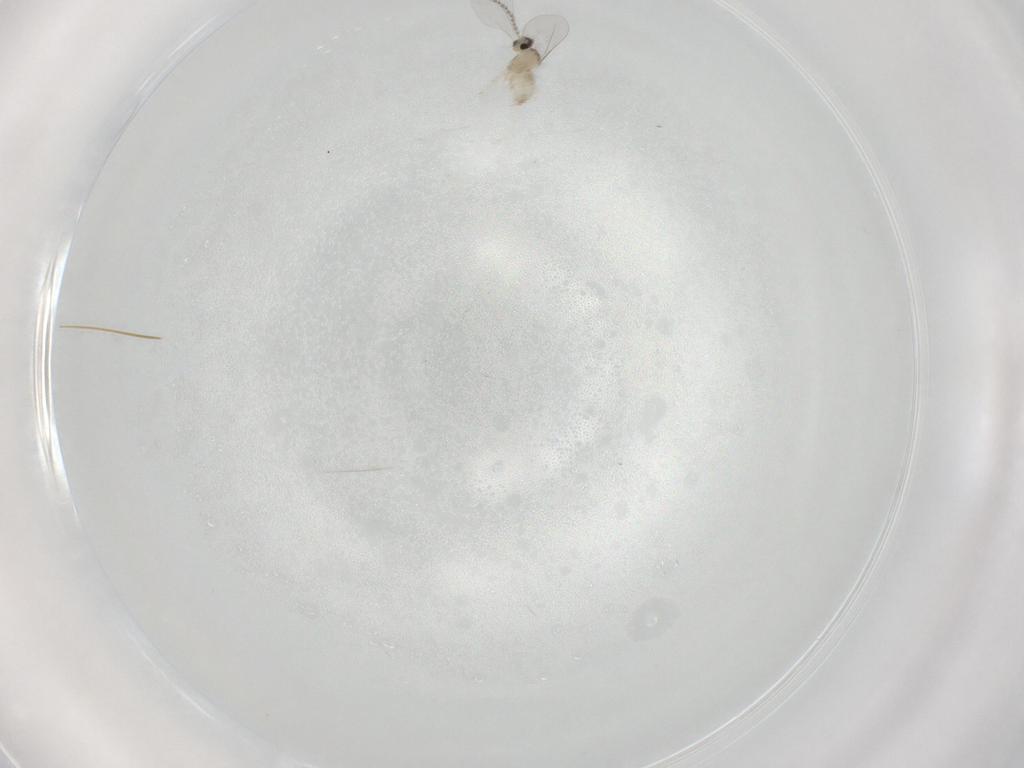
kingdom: Animalia
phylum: Arthropoda
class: Insecta
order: Diptera
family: Cecidomyiidae
